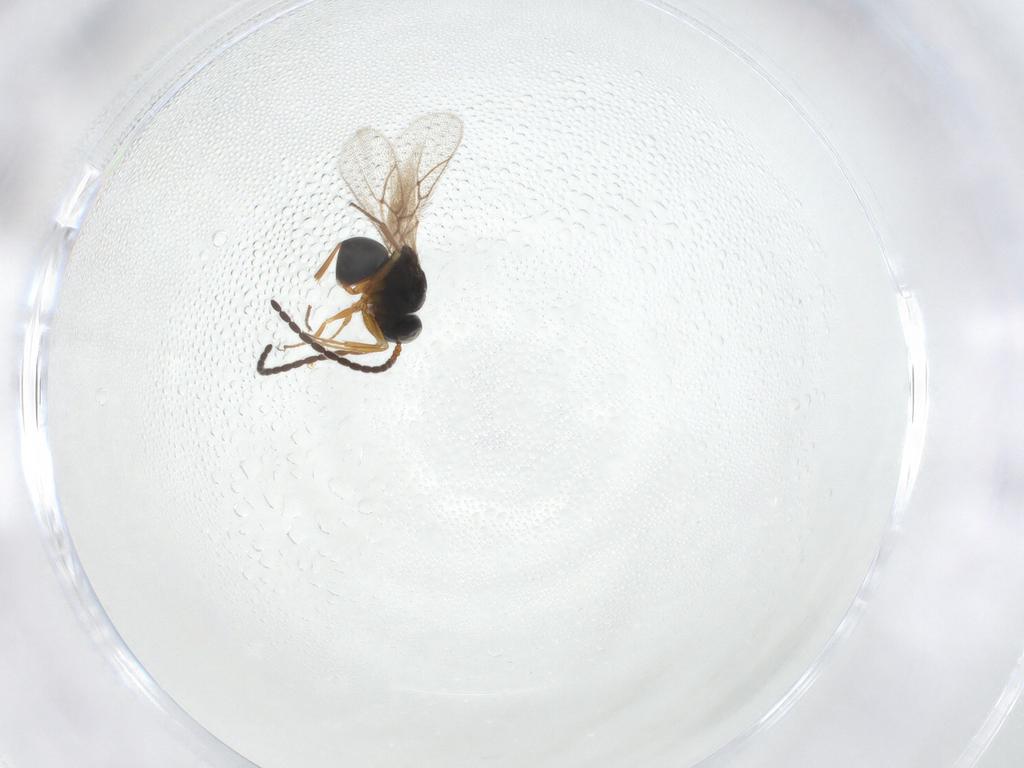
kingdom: Animalia
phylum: Arthropoda
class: Insecta
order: Hymenoptera
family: Figitidae
